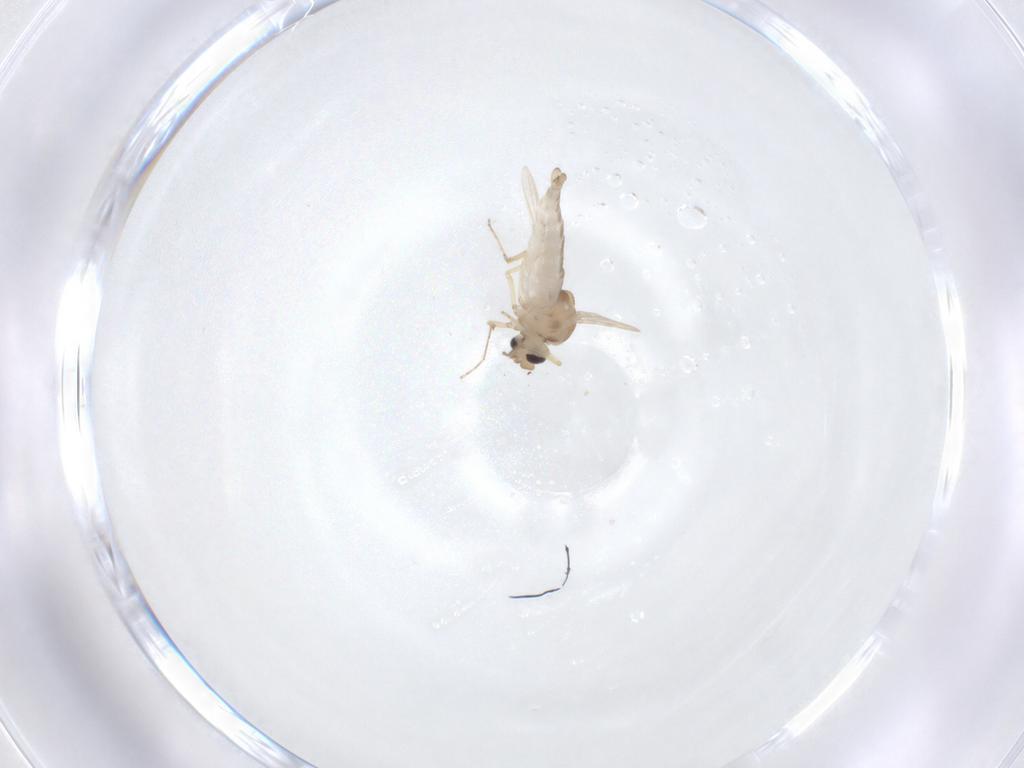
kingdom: Animalia
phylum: Arthropoda
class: Insecta
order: Diptera
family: Ceratopogonidae
